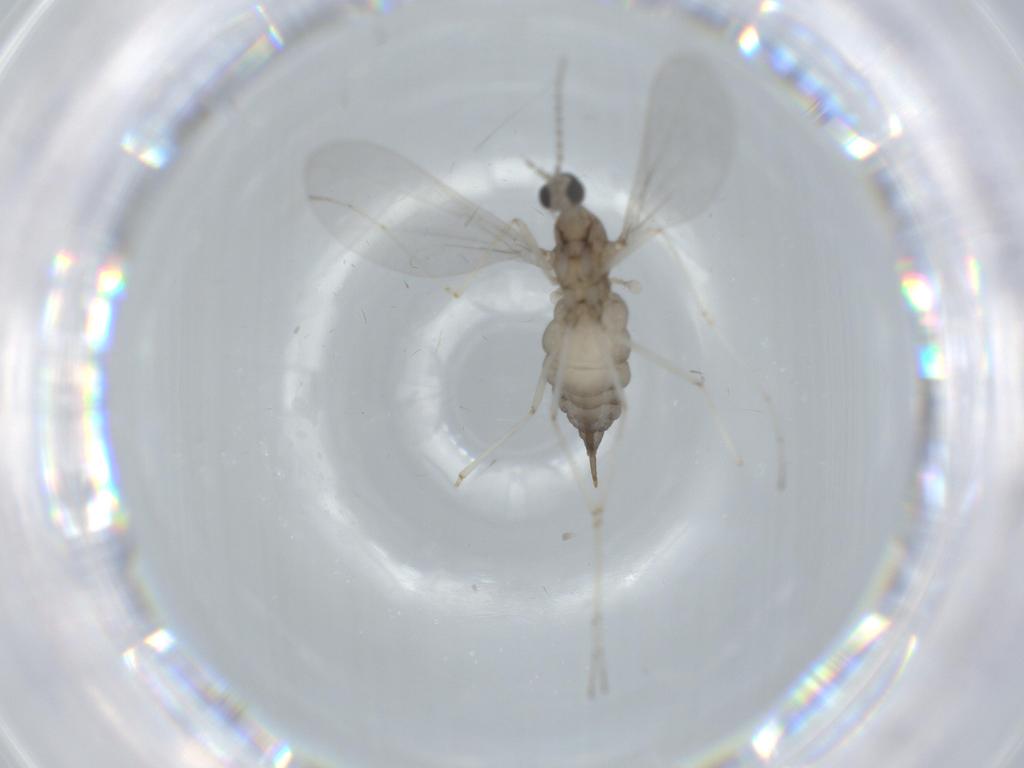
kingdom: Animalia
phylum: Arthropoda
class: Insecta
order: Diptera
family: Cecidomyiidae
